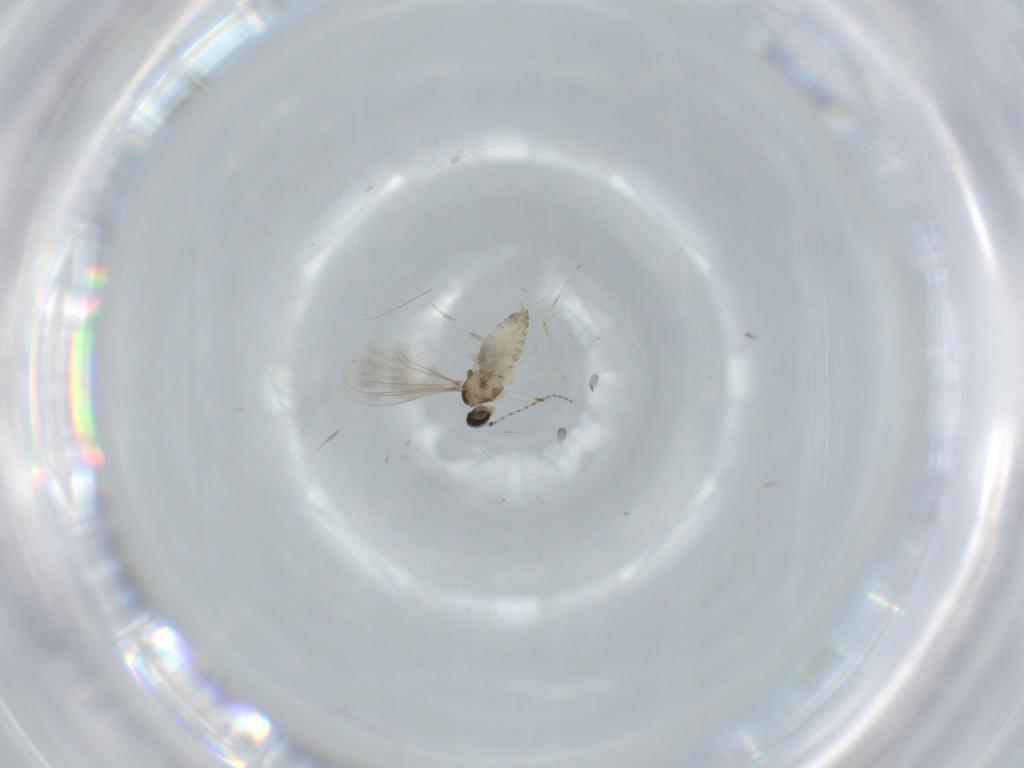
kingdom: Animalia
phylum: Arthropoda
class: Insecta
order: Diptera
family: Cecidomyiidae
